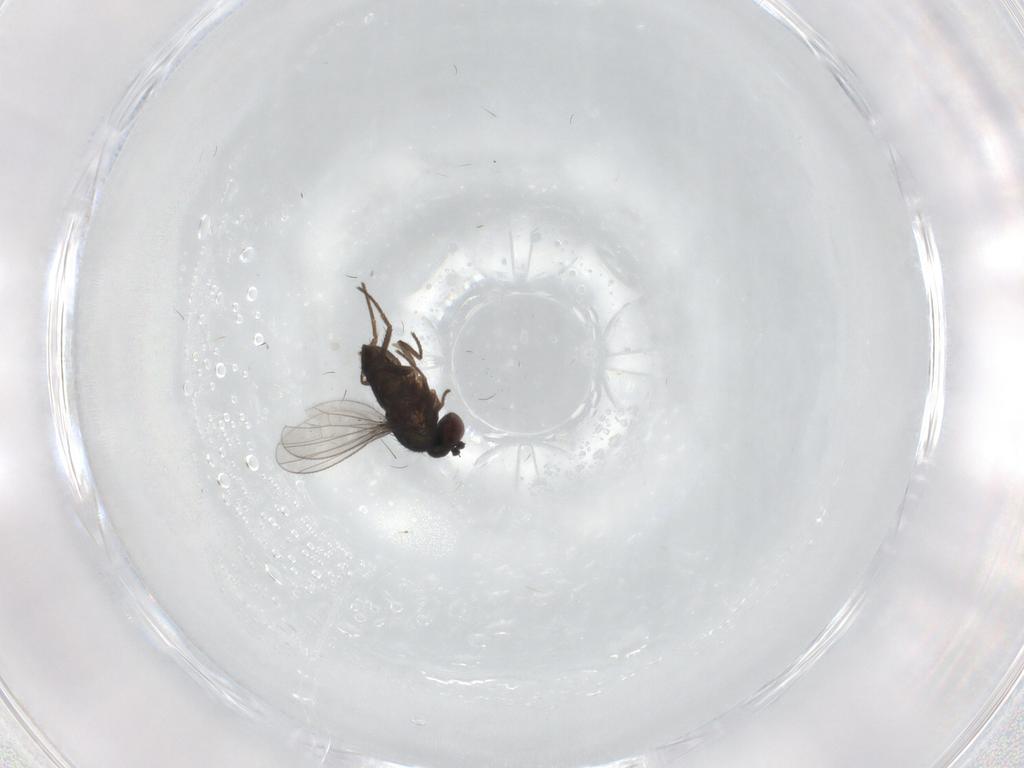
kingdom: Animalia
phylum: Arthropoda
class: Insecta
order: Diptera
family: Dolichopodidae
